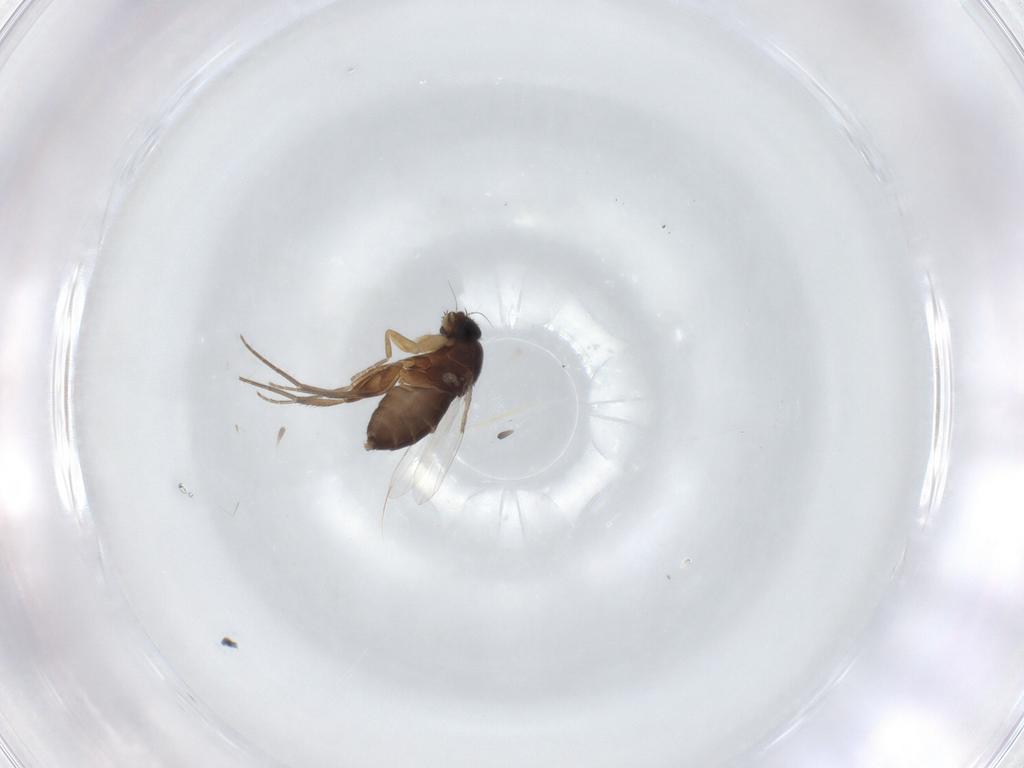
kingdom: Animalia
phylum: Arthropoda
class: Insecta
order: Diptera
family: Phoridae
